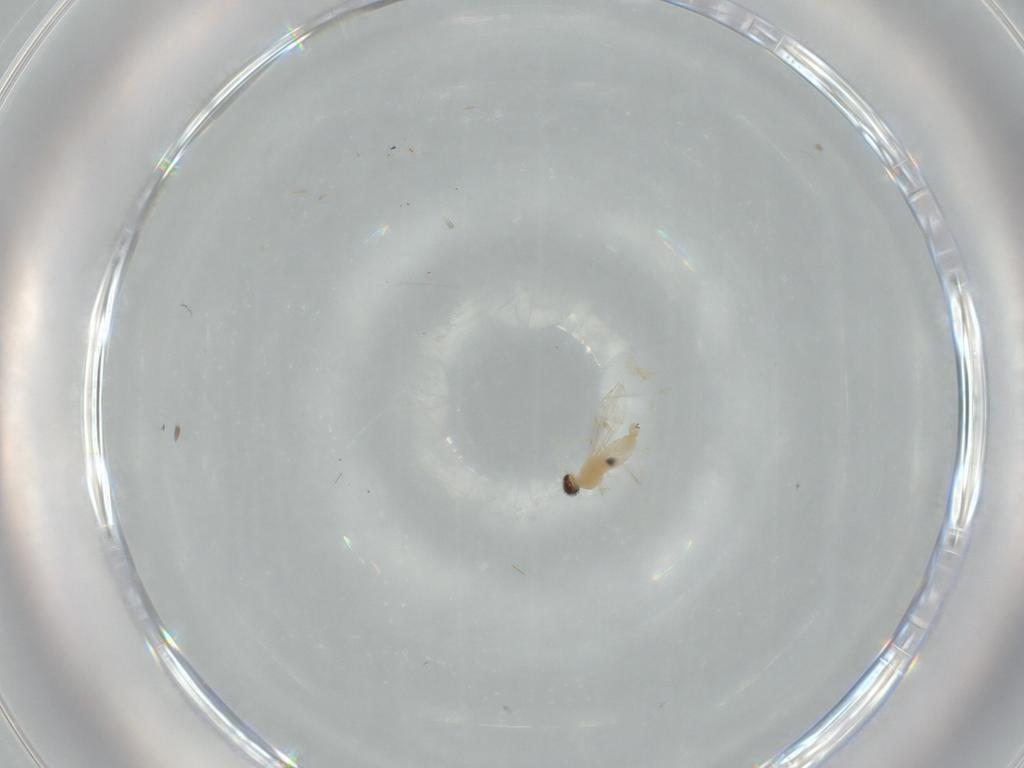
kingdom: Animalia
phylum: Arthropoda
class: Insecta
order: Diptera
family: Cecidomyiidae
